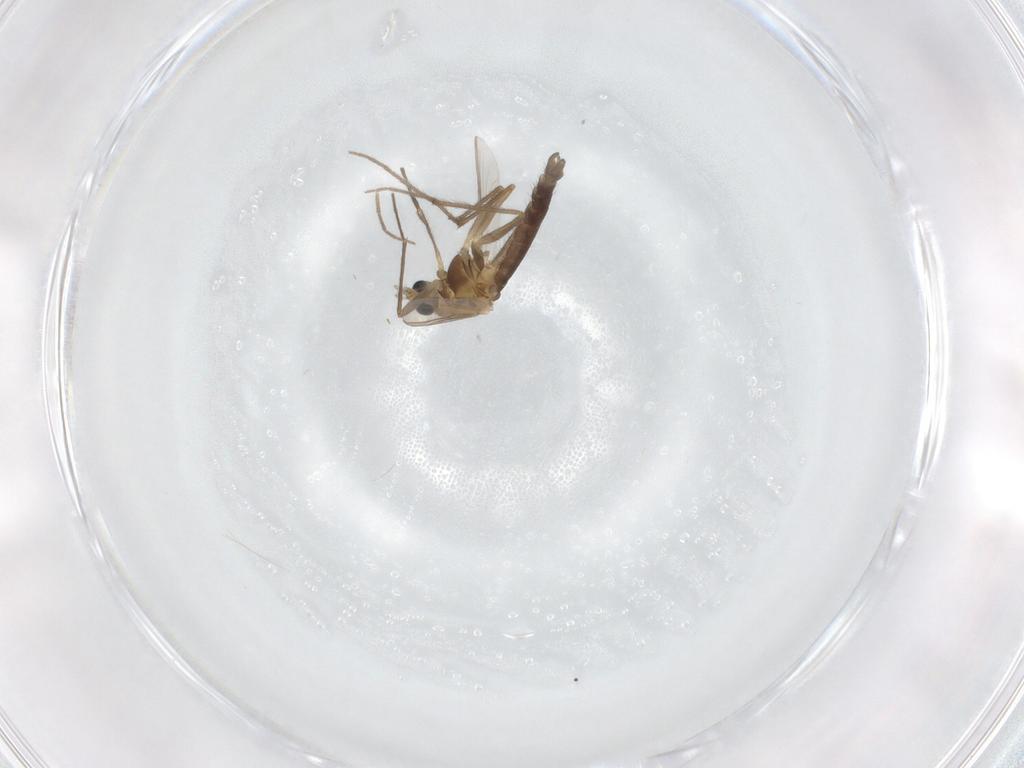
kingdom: Animalia
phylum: Arthropoda
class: Insecta
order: Diptera
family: Chironomidae
